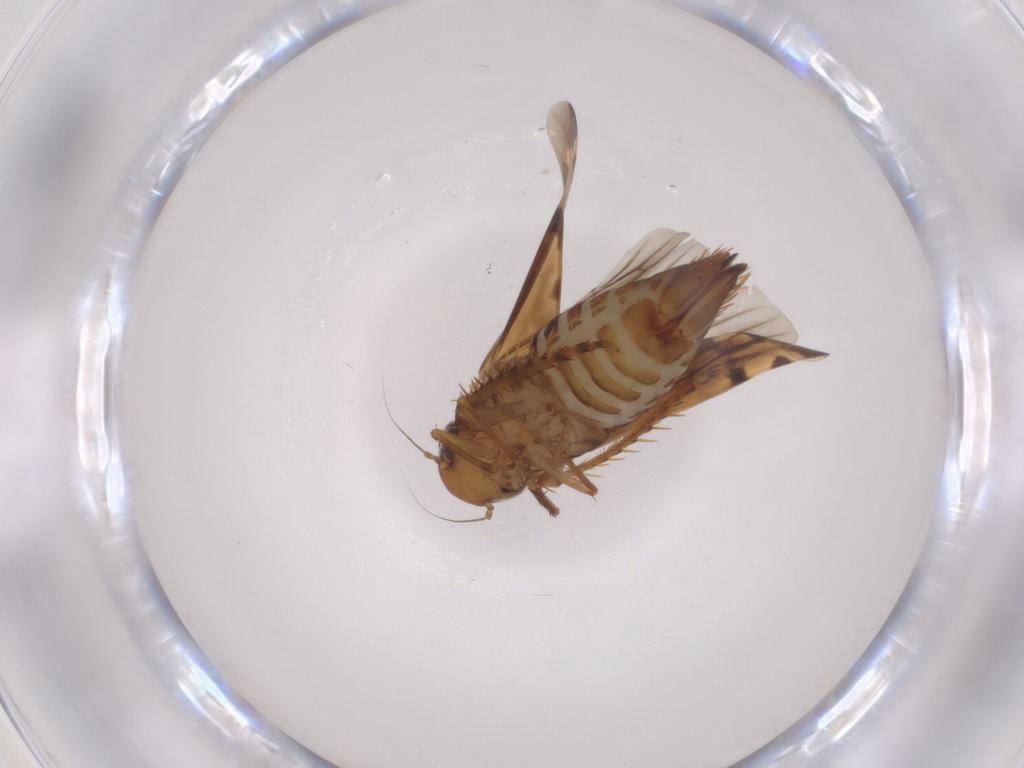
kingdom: Animalia
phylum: Arthropoda
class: Insecta
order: Hemiptera
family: Cicadellidae
